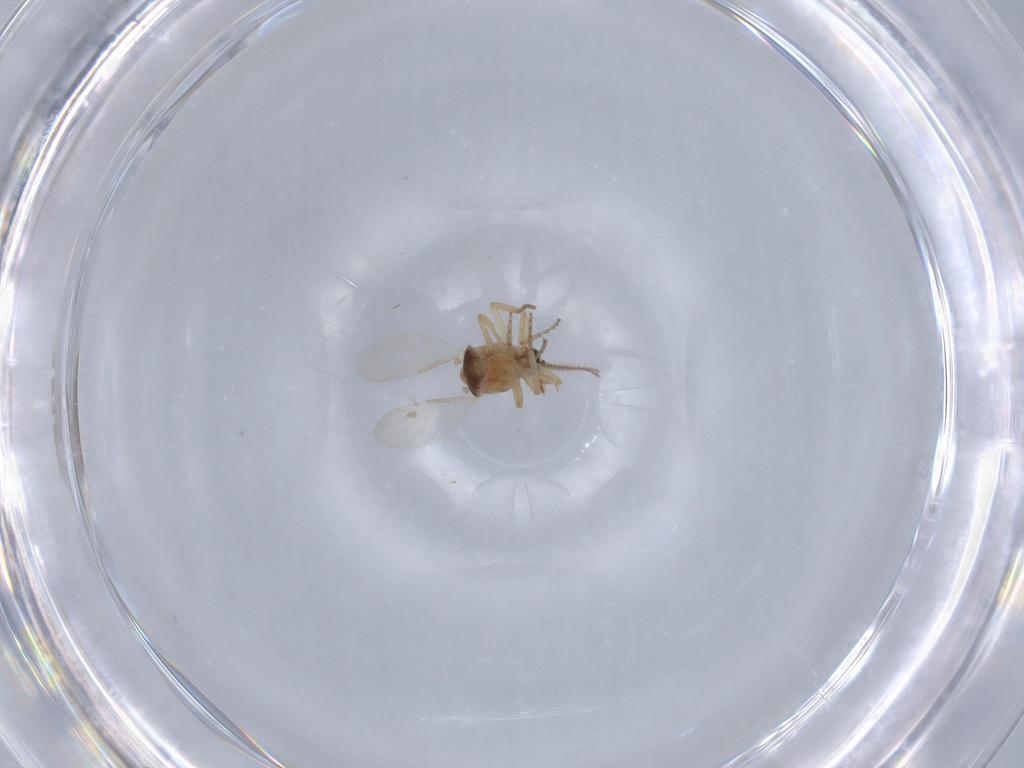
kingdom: Animalia
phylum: Arthropoda
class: Insecta
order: Diptera
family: Ceratopogonidae
